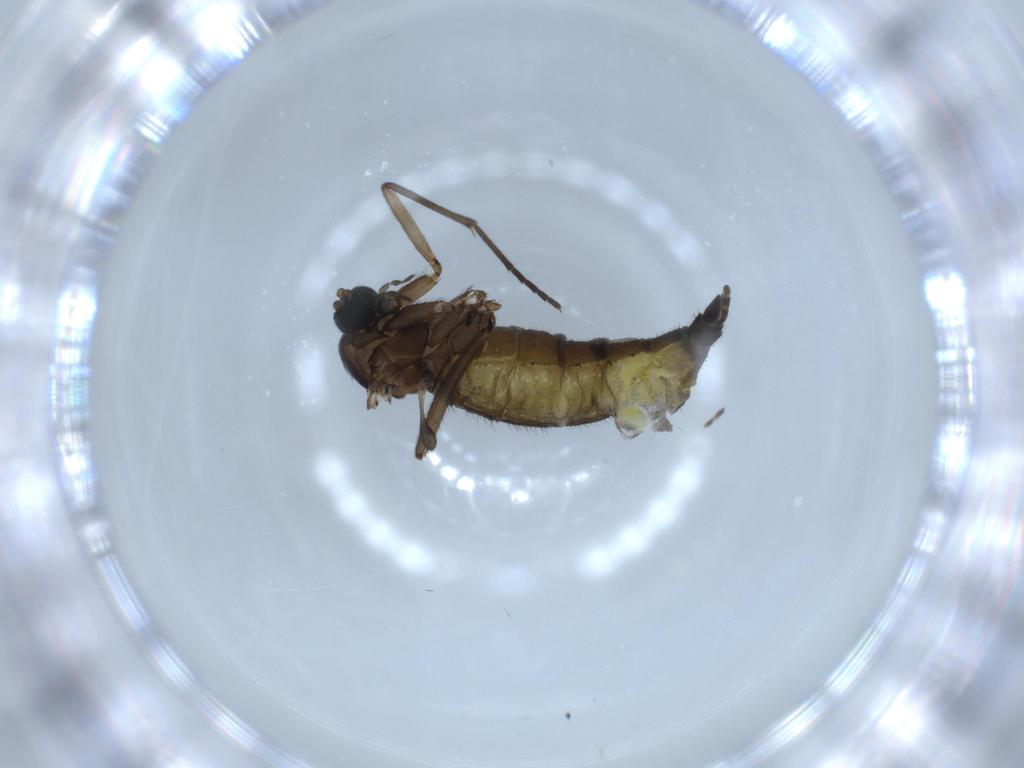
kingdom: Animalia
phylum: Arthropoda
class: Insecta
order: Diptera
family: Sciaridae
